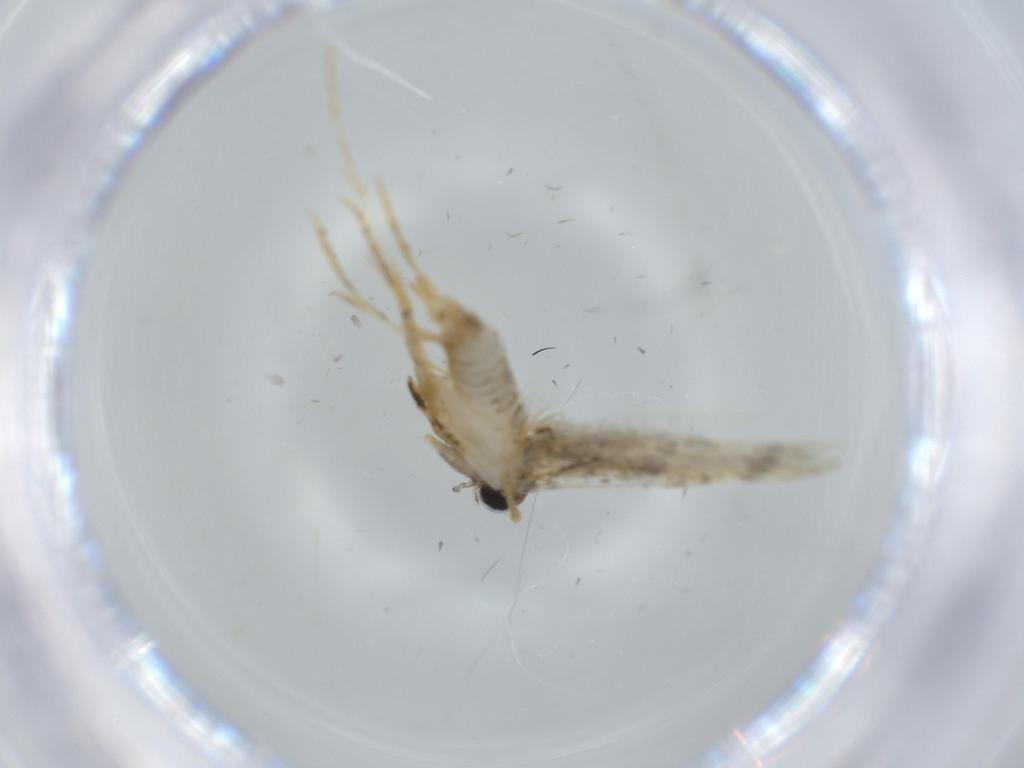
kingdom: Animalia
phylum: Arthropoda
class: Insecta
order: Lepidoptera
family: Tineidae
